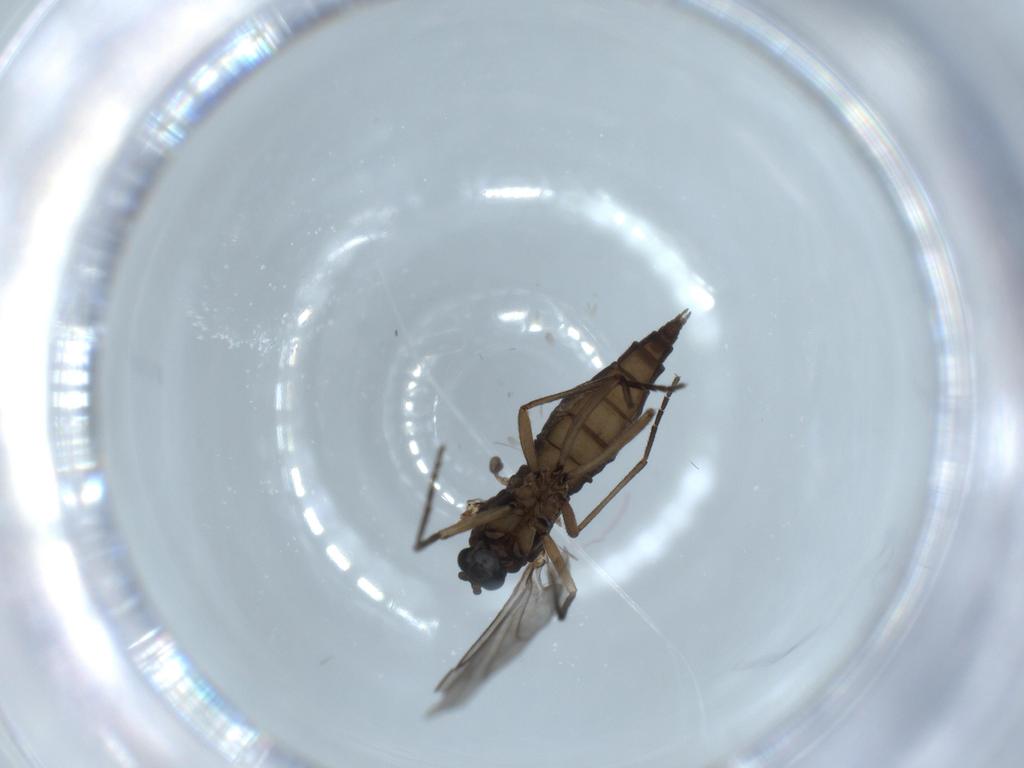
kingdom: Animalia
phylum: Arthropoda
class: Insecta
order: Diptera
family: Sciaridae
